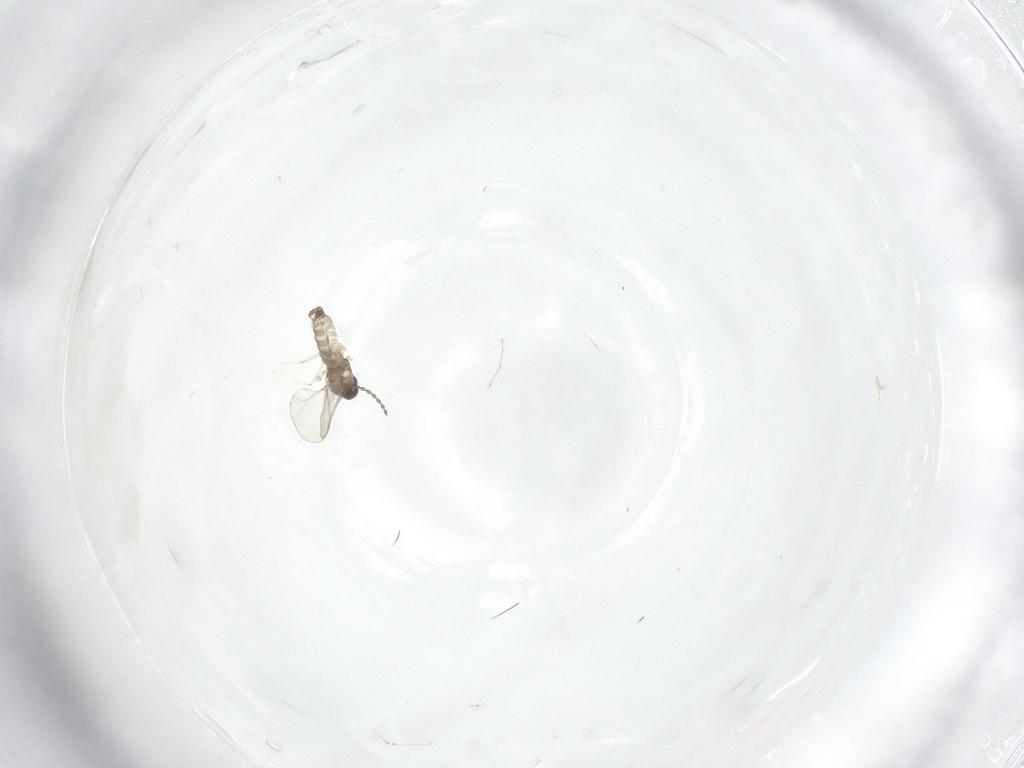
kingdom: Animalia
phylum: Arthropoda
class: Insecta
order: Diptera
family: Cecidomyiidae
